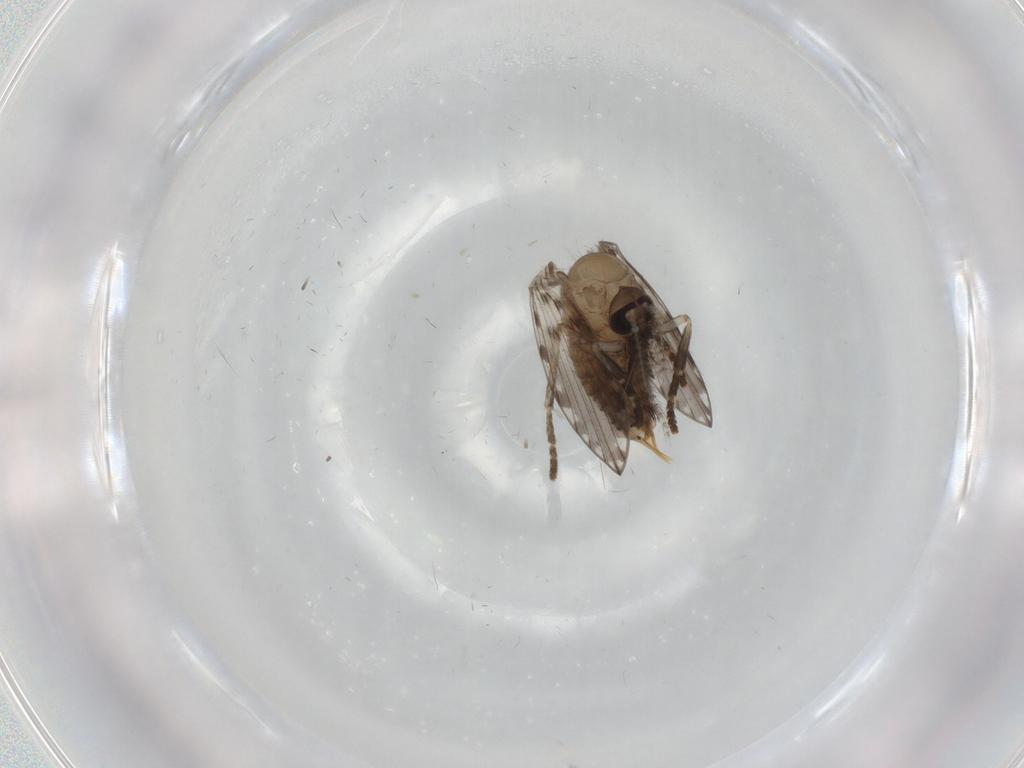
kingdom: Animalia
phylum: Arthropoda
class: Insecta
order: Diptera
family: Psychodidae
